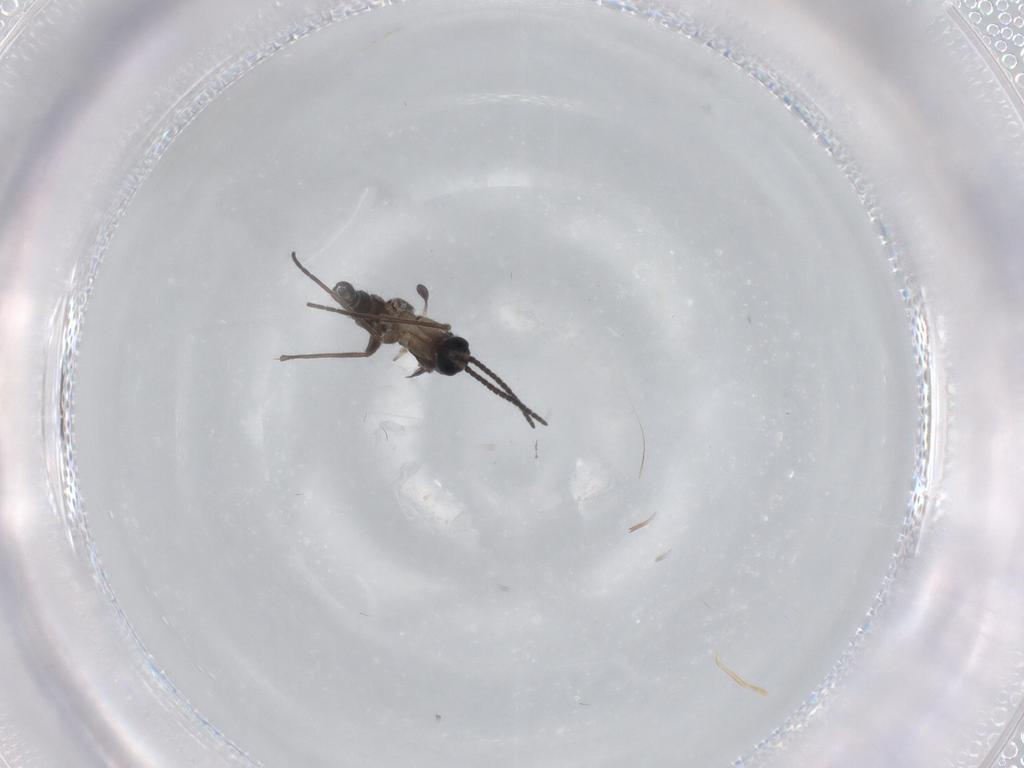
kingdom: Animalia
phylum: Arthropoda
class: Insecta
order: Diptera
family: Sciaridae
